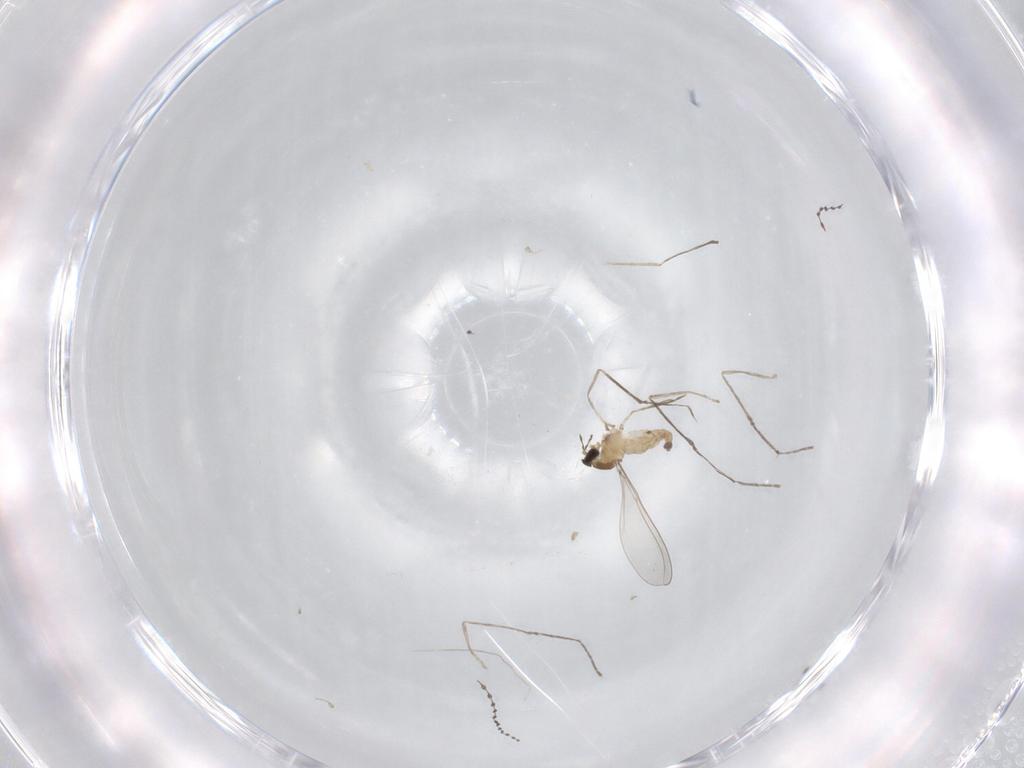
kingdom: Animalia
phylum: Arthropoda
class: Insecta
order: Diptera
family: Cecidomyiidae
